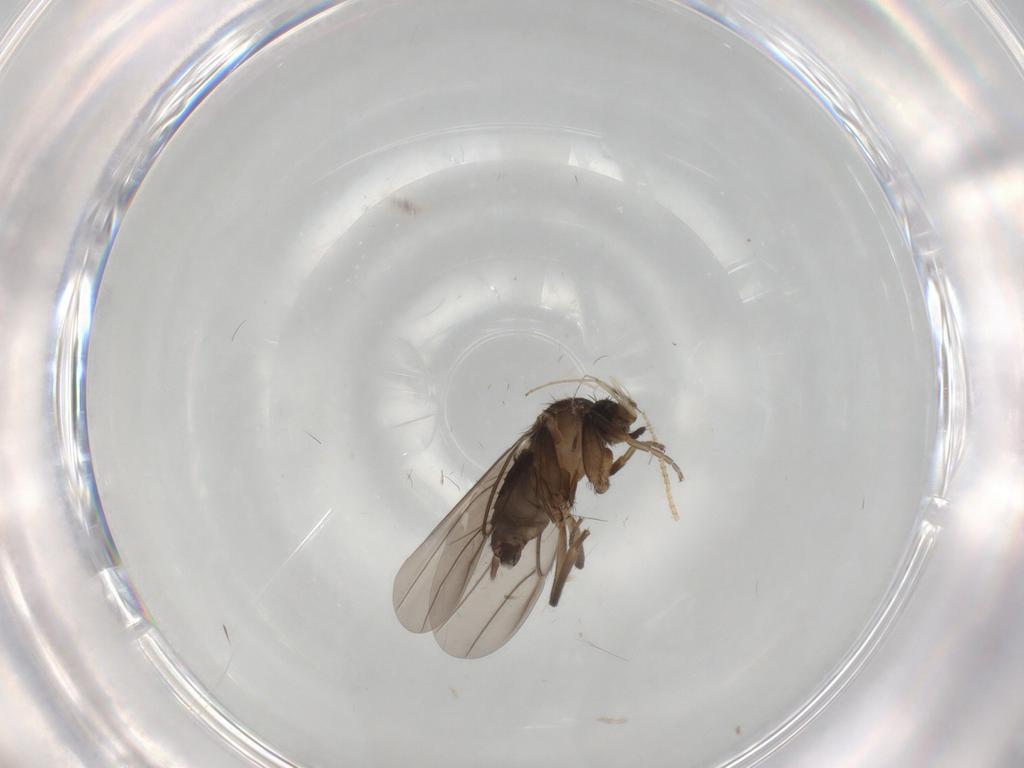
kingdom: Animalia
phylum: Arthropoda
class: Insecta
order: Diptera
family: Phoridae
